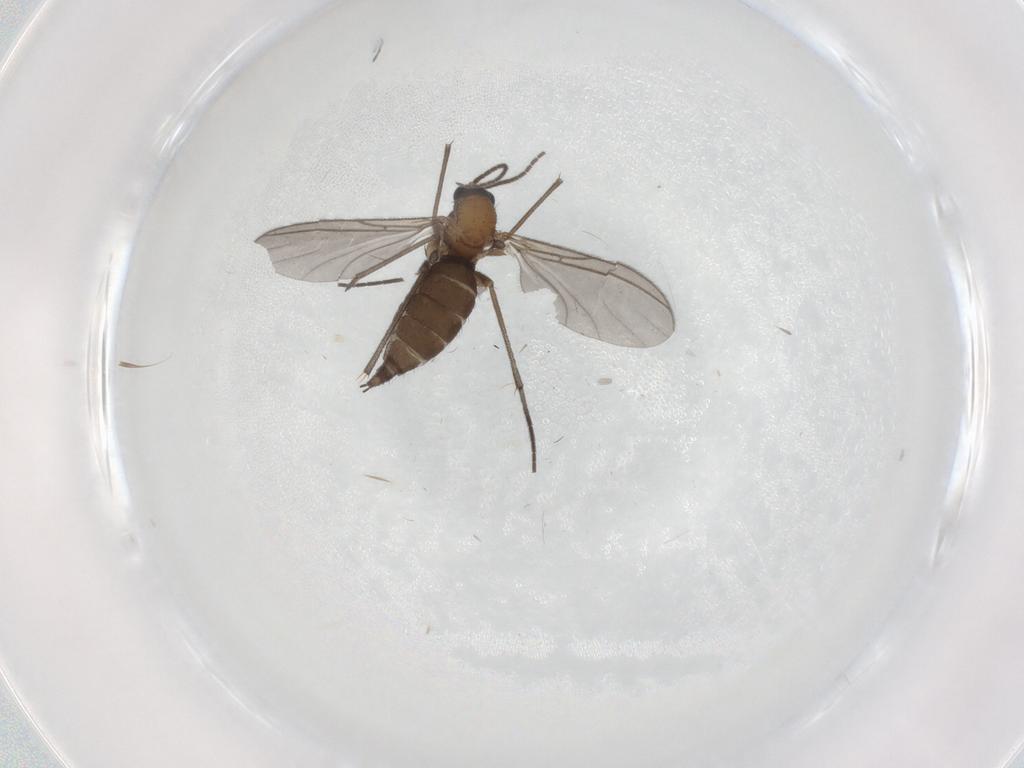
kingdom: Animalia
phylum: Arthropoda
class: Insecta
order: Diptera
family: Sciaridae
